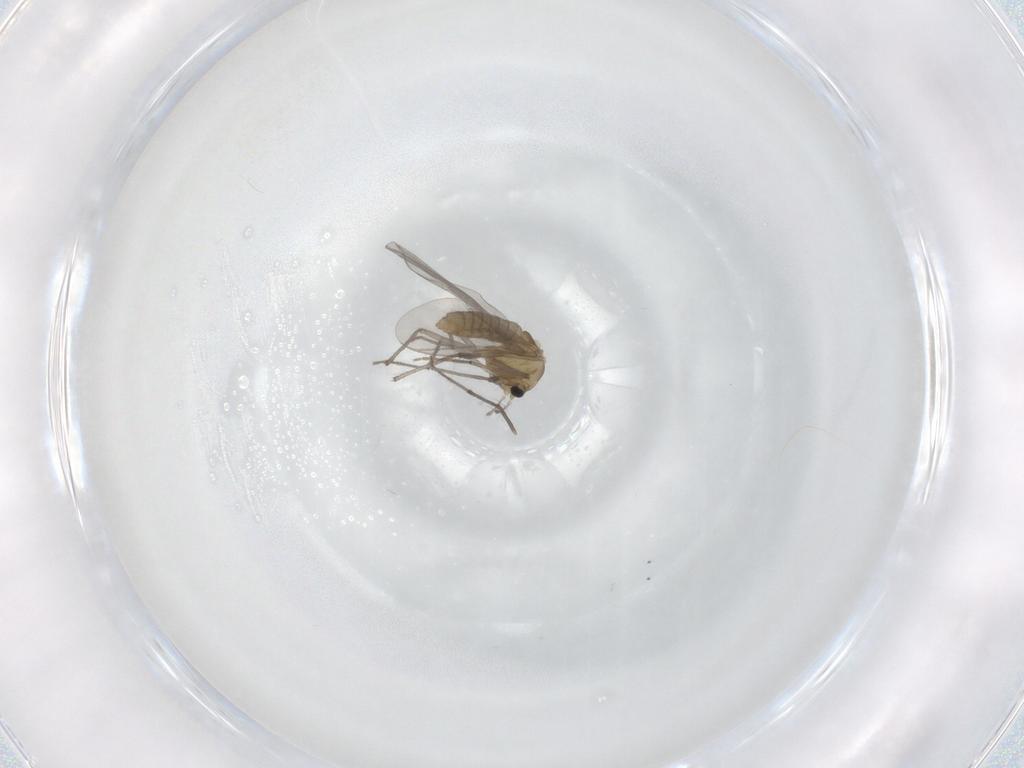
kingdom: Animalia
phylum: Arthropoda
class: Insecta
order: Diptera
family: Chironomidae
